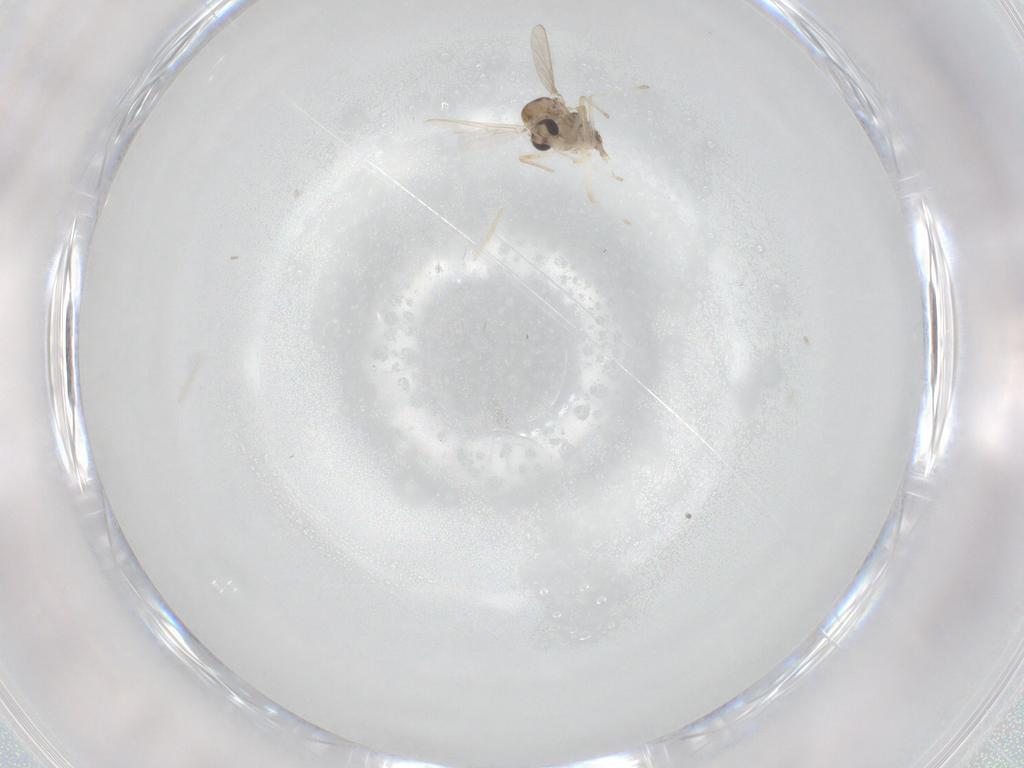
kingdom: Animalia
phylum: Arthropoda
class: Insecta
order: Diptera
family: Chironomidae
